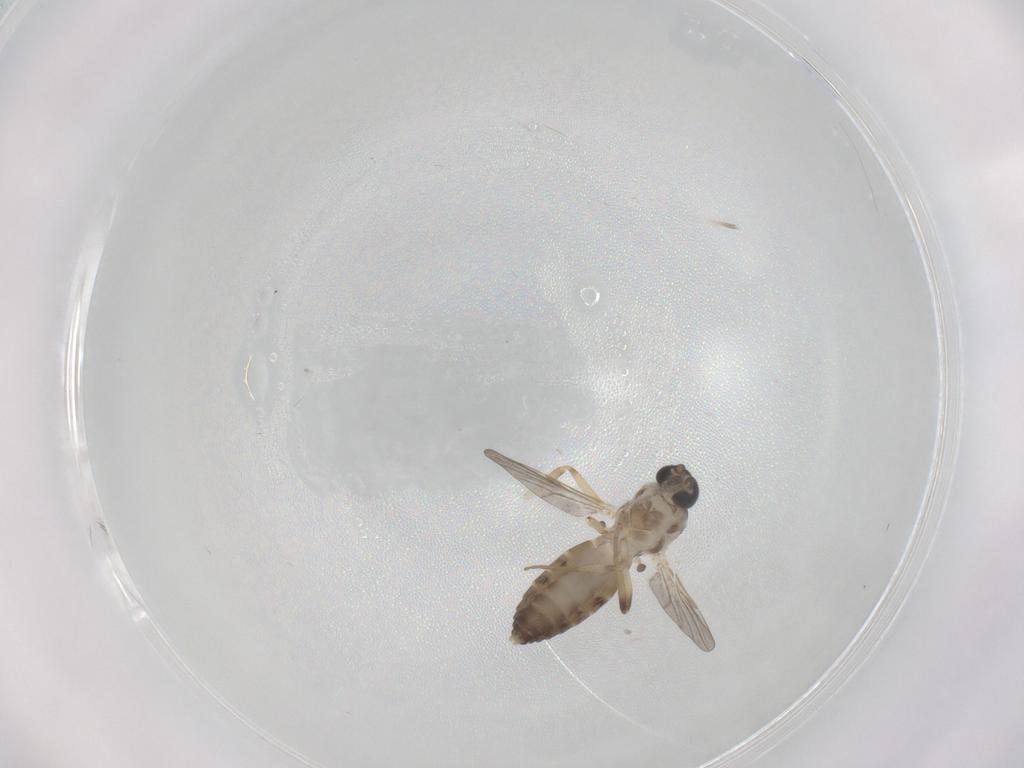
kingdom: Animalia
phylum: Arthropoda
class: Insecta
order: Diptera
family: Ceratopogonidae
